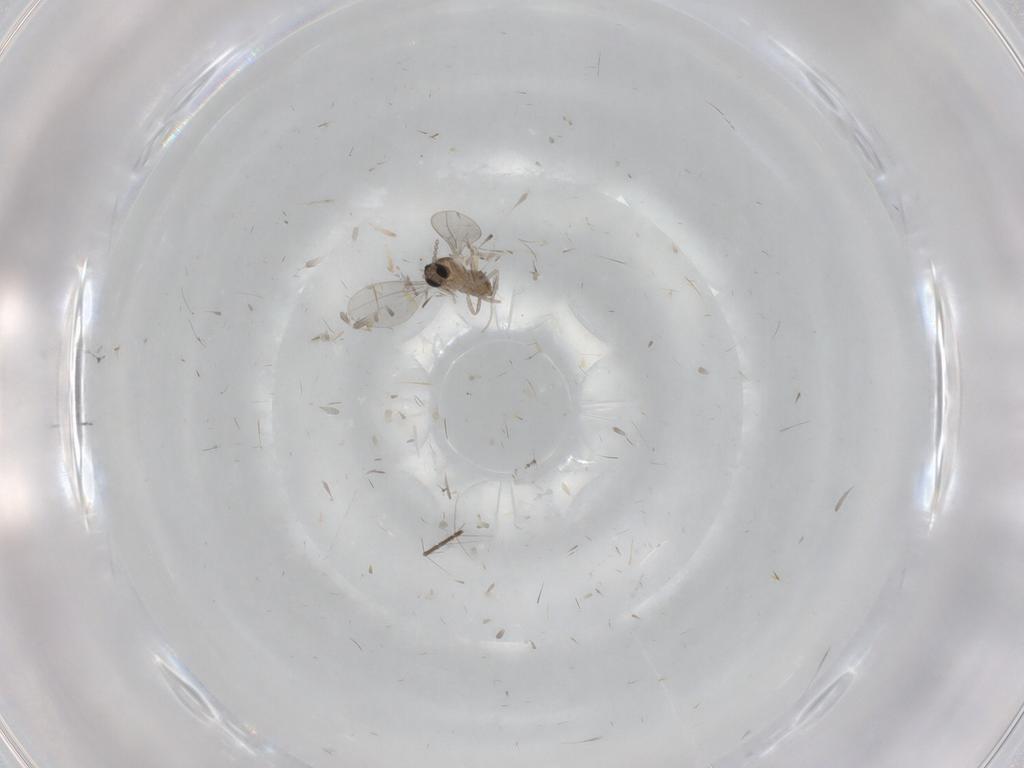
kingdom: Animalia
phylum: Arthropoda
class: Insecta
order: Diptera
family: Cecidomyiidae
